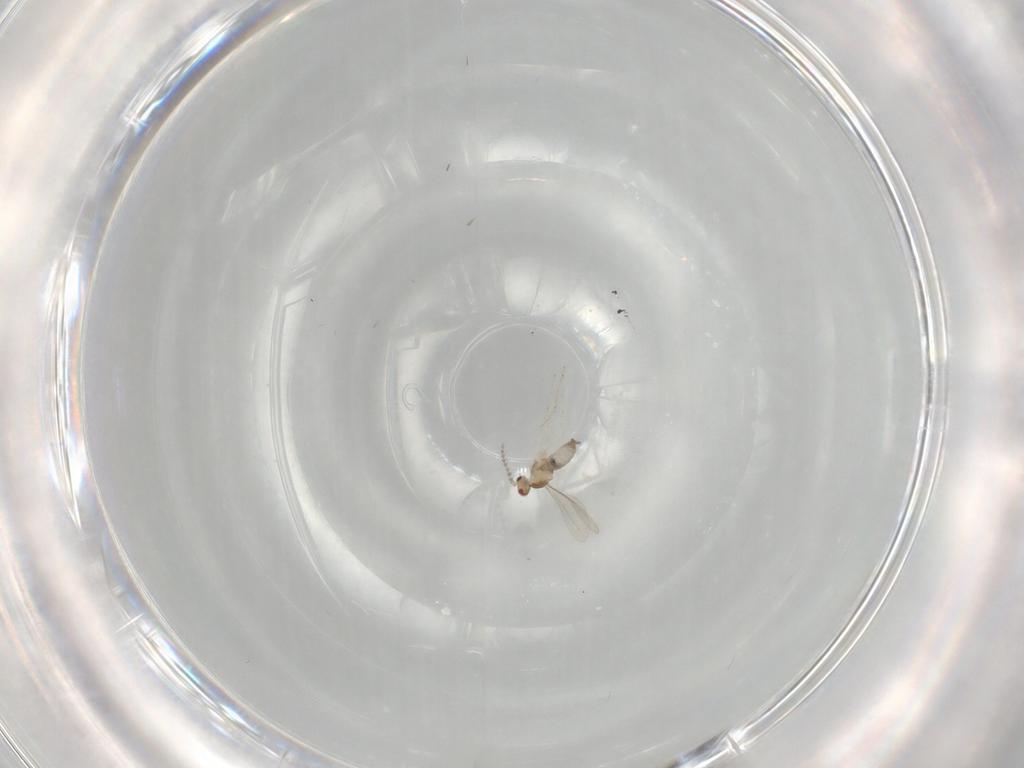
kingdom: Animalia
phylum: Arthropoda
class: Insecta
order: Diptera
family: Cecidomyiidae
